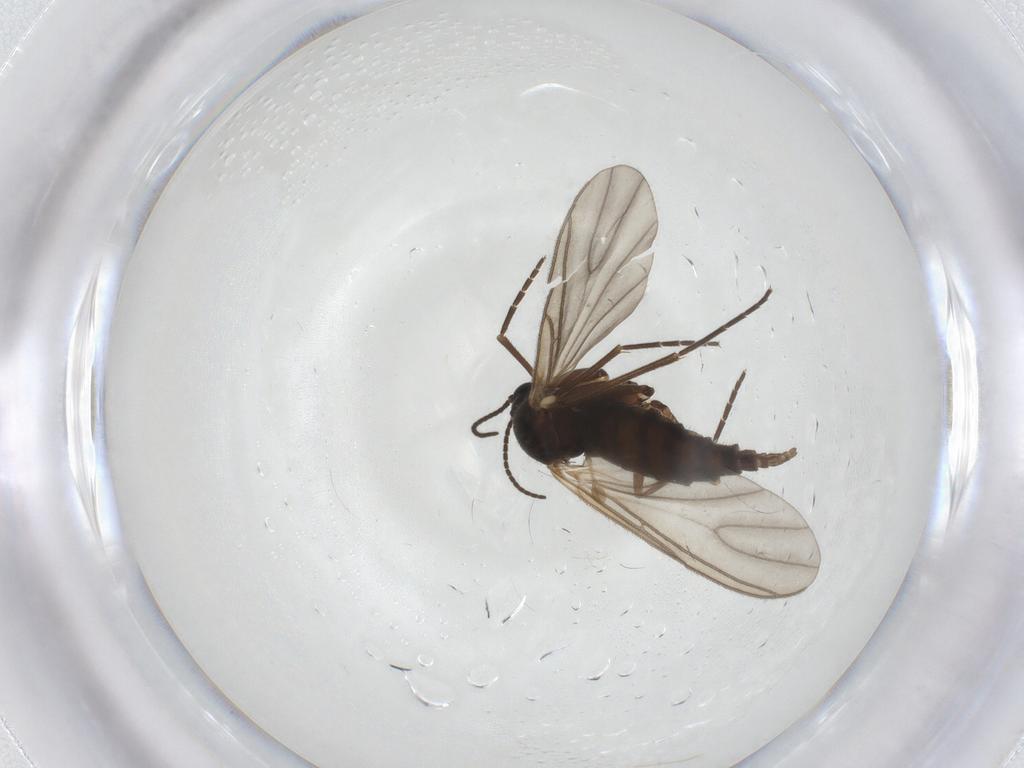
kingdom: Animalia
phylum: Arthropoda
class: Insecta
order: Diptera
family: Sciaridae
